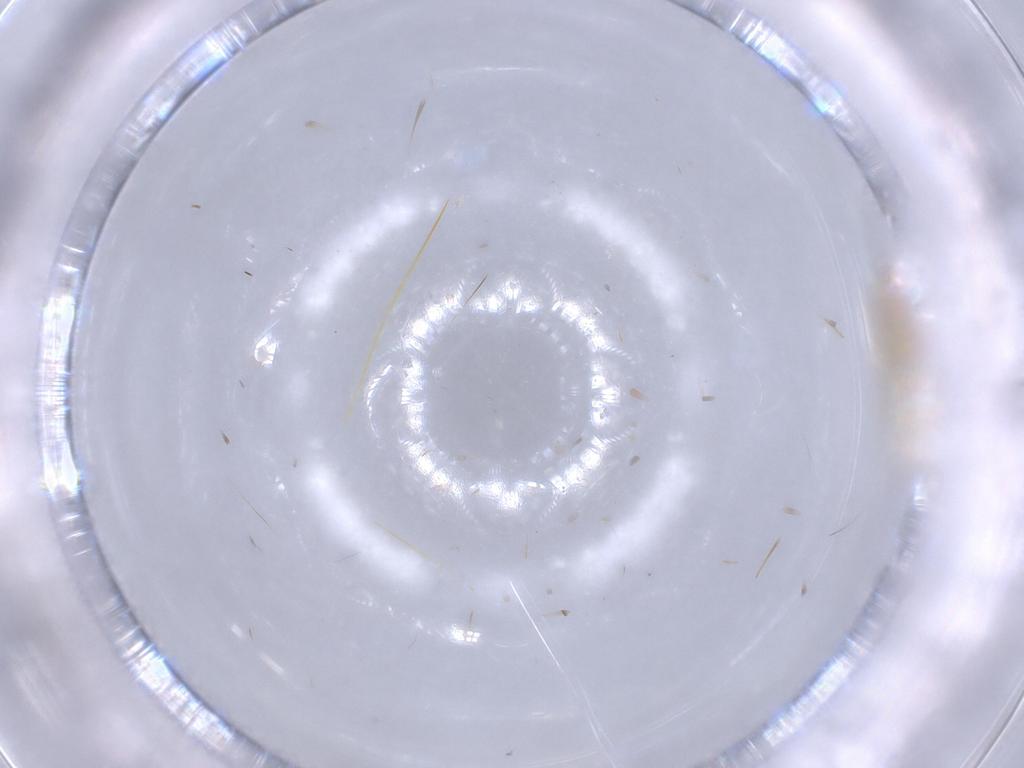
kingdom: Animalia
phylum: Arthropoda
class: Insecta
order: Hemiptera
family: Nogodinidae
